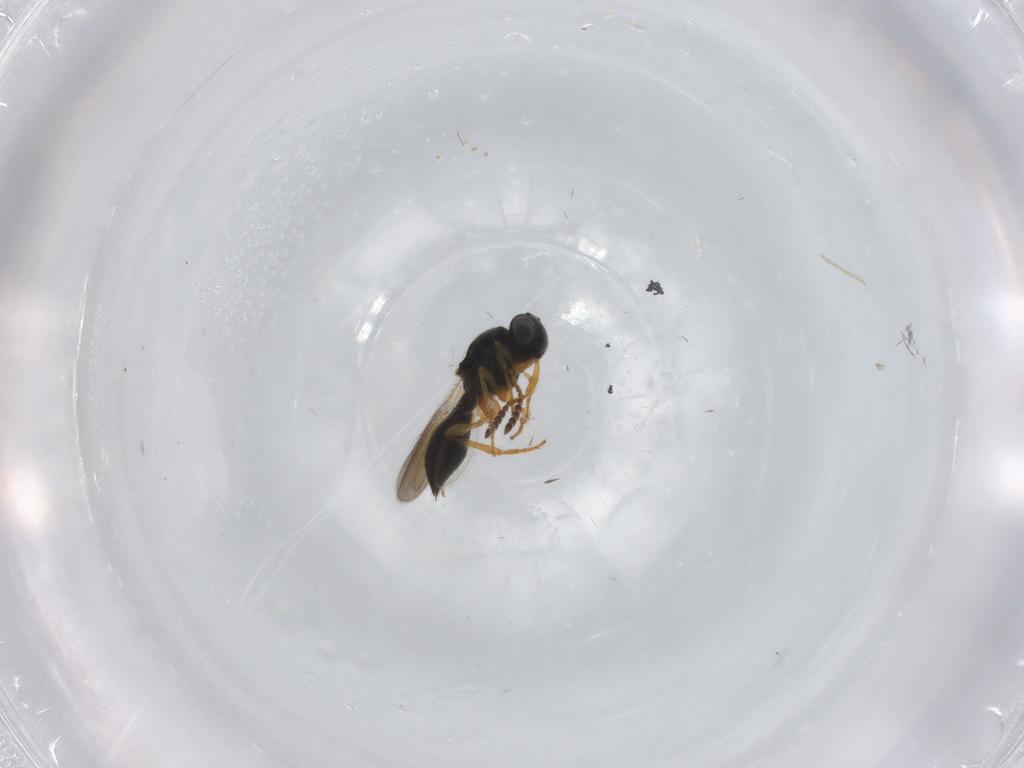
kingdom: Animalia
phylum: Arthropoda
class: Insecta
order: Hymenoptera
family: Platygastridae
